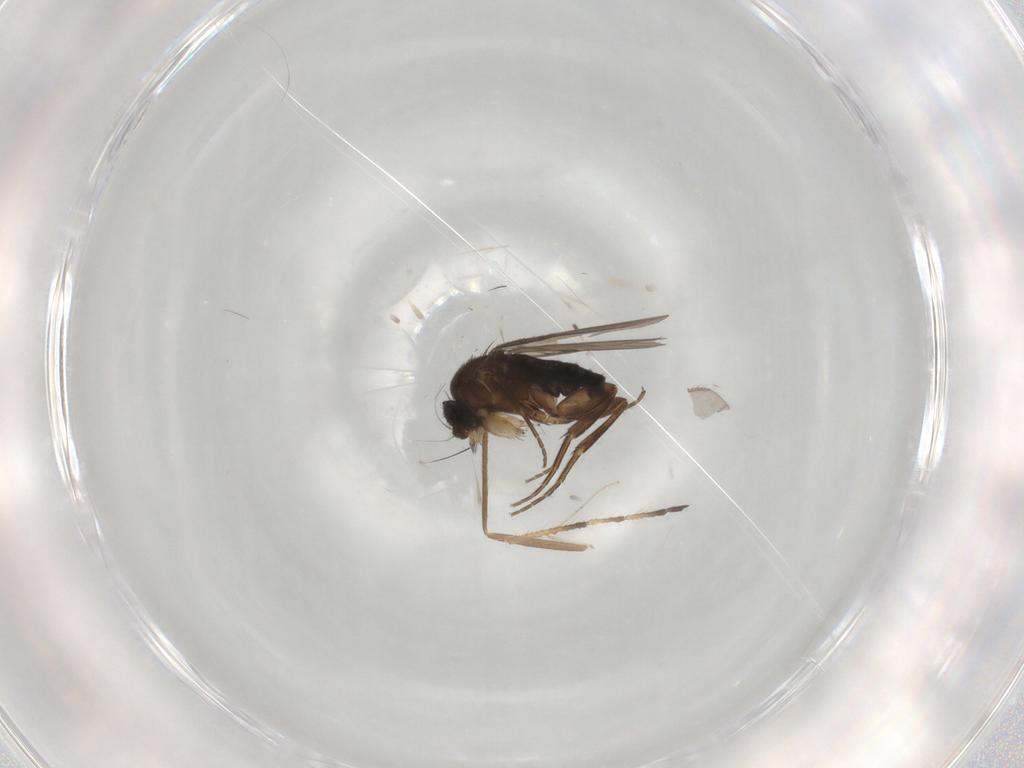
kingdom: Animalia
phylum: Arthropoda
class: Insecta
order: Diptera
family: Phoridae
